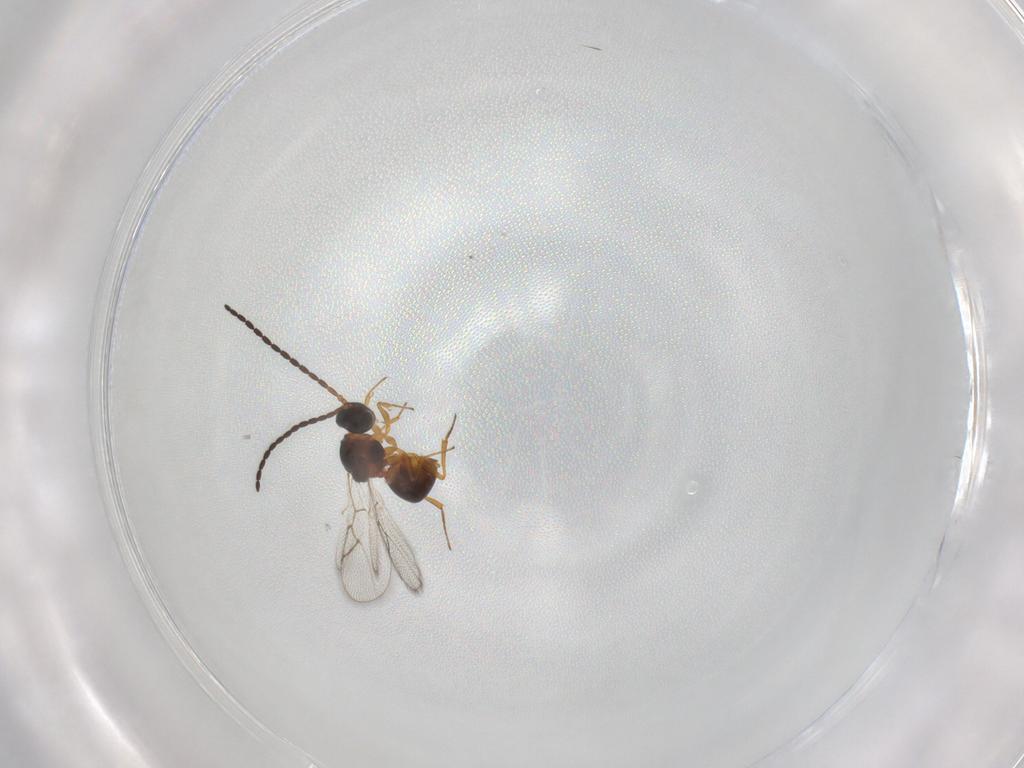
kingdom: Animalia
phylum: Arthropoda
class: Insecta
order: Hymenoptera
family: Figitidae
